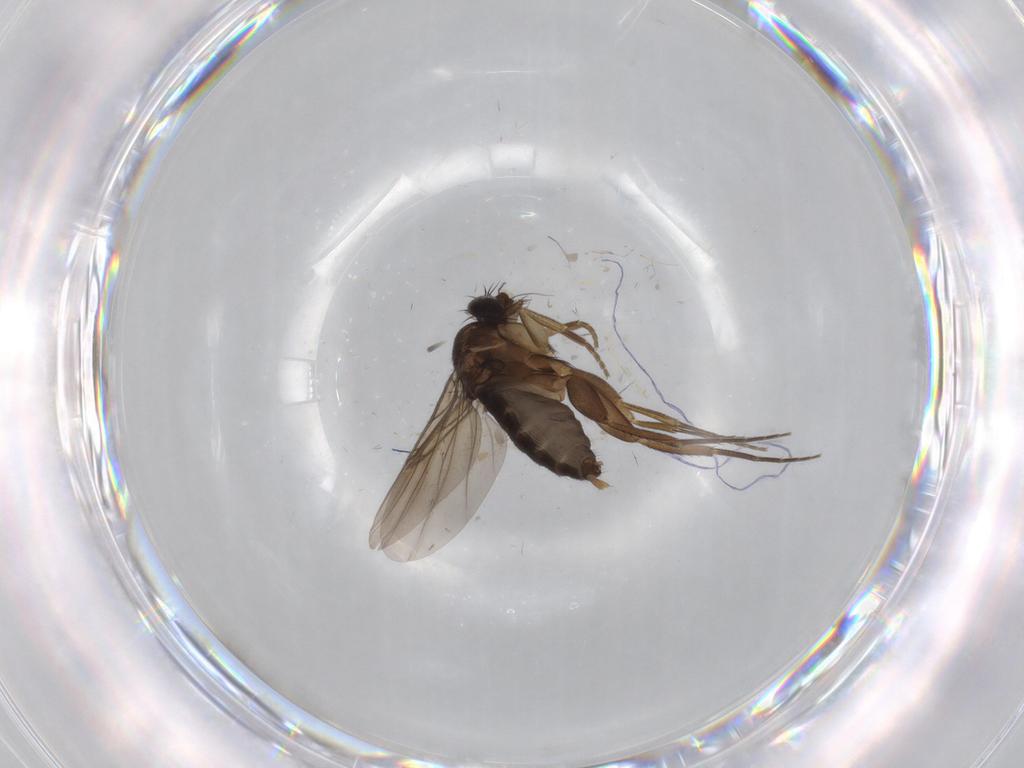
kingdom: Animalia
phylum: Arthropoda
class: Insecta
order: Diptera
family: Phoridae
